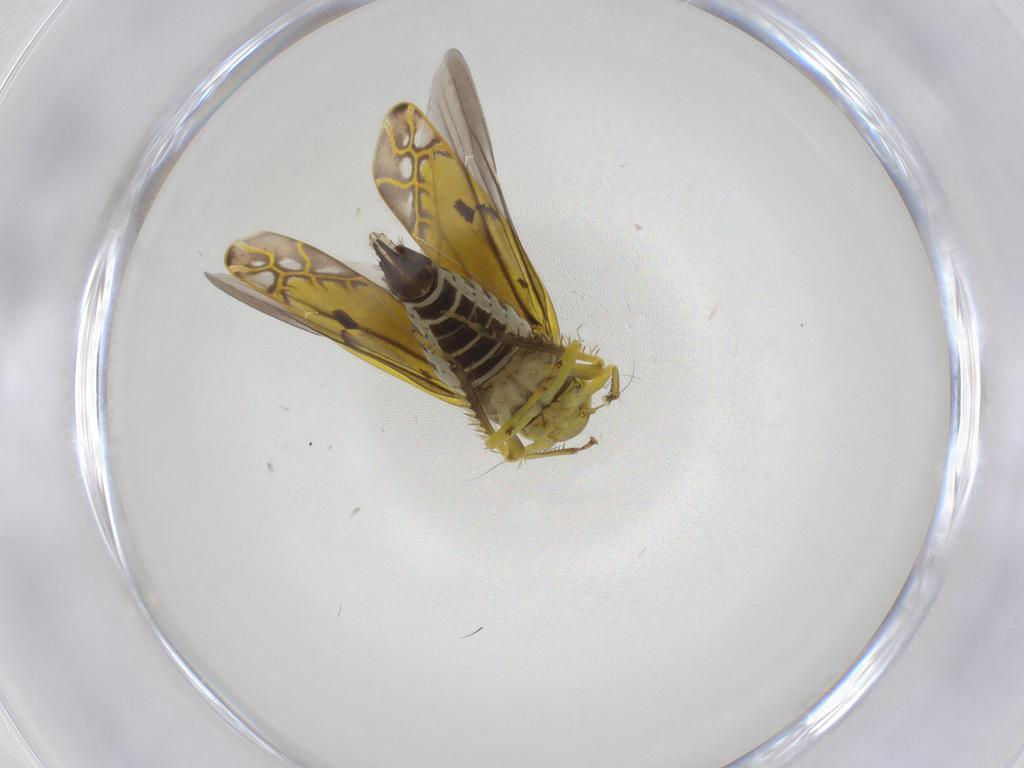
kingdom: Animalia
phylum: Arthropoda
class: Insecta
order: Hemiptera
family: Cicadellidae
